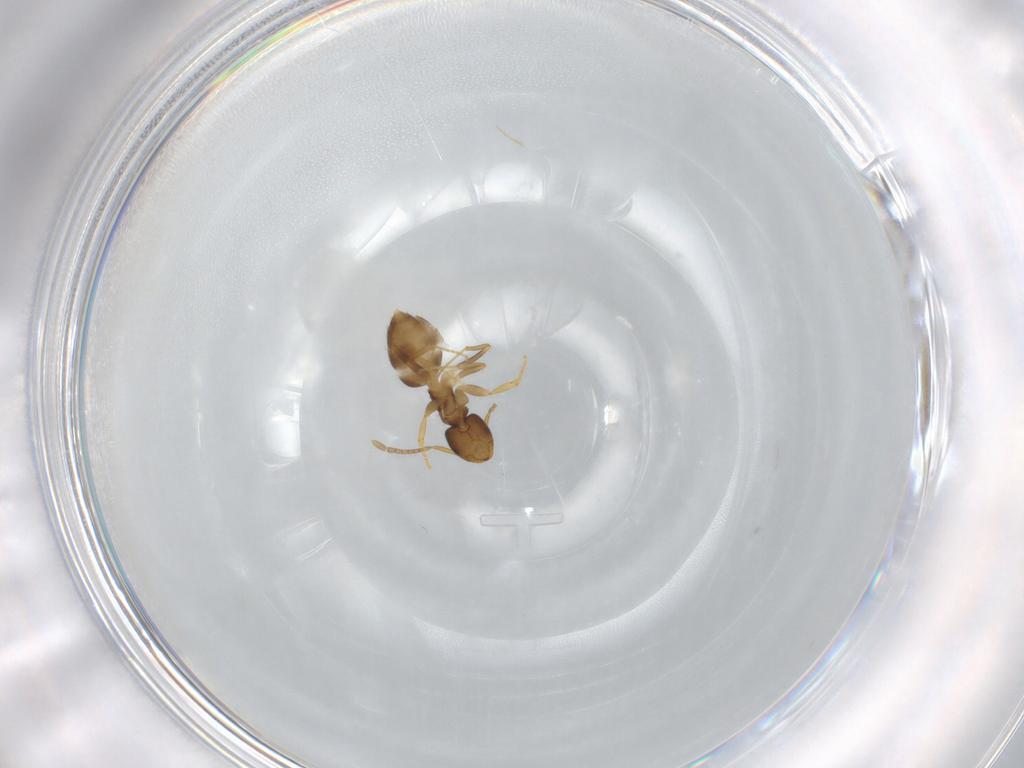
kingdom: Animalia
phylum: Arthropoda
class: Insecta
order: Hymenoptera
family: Formicidae
